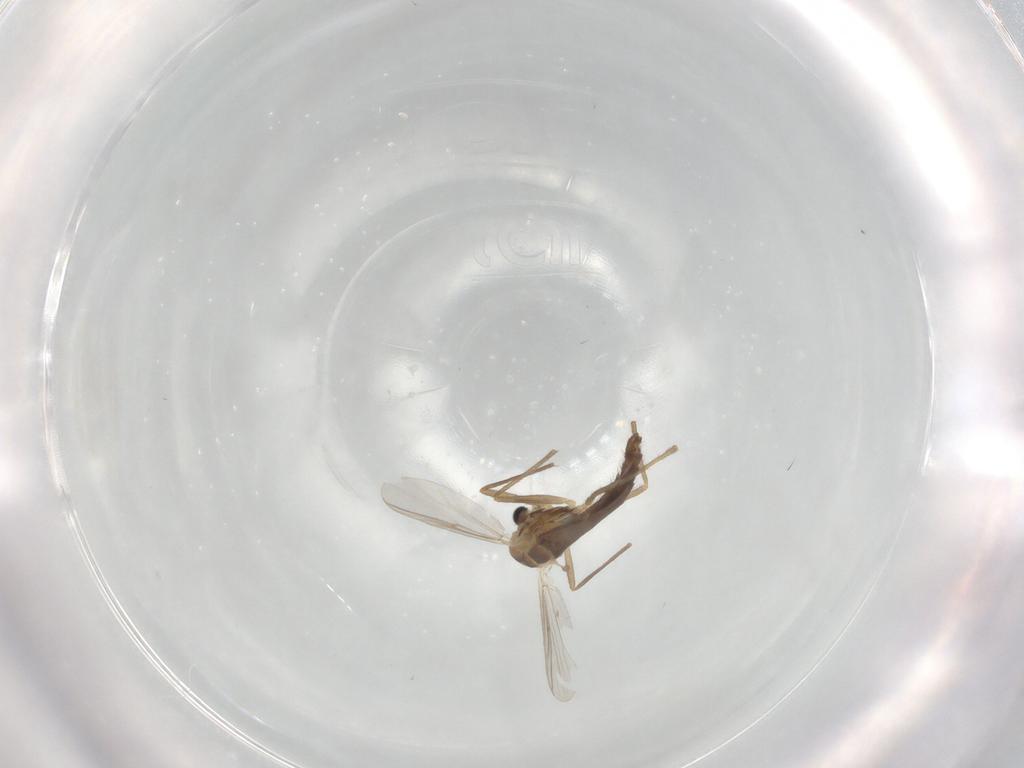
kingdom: Animalia
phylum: Arthropoda
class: Insecta
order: Diptera
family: Chironomidae
